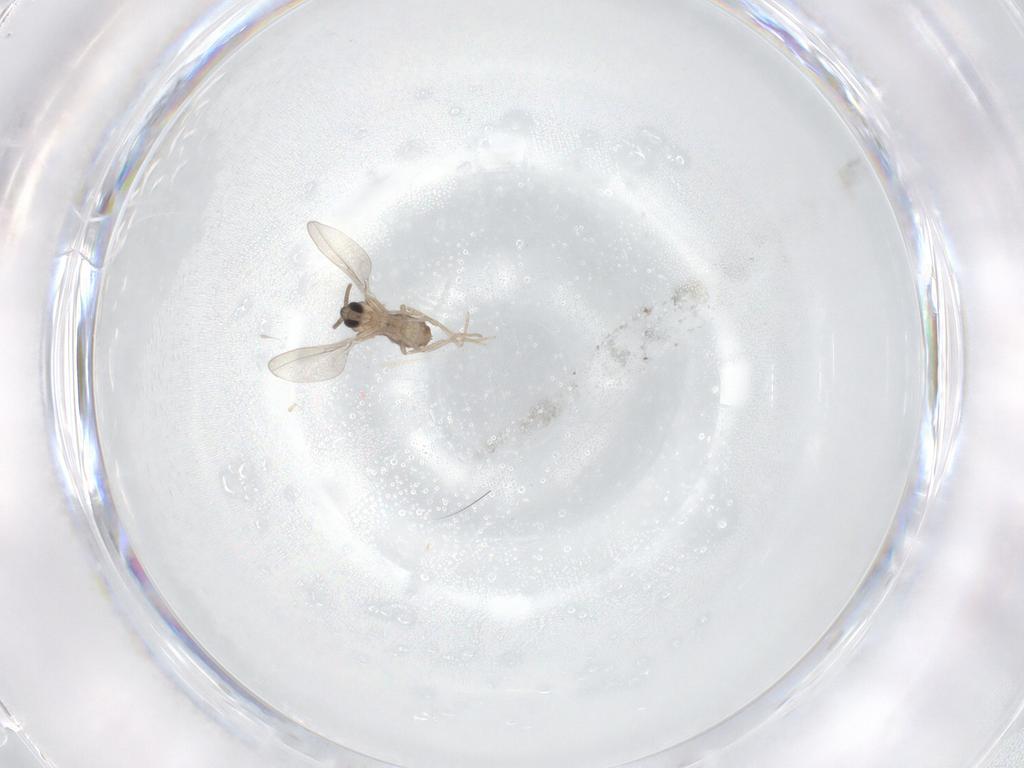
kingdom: Animalia
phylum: Arthropoda
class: Insecta
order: Diptera
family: Cecidomyiidae
